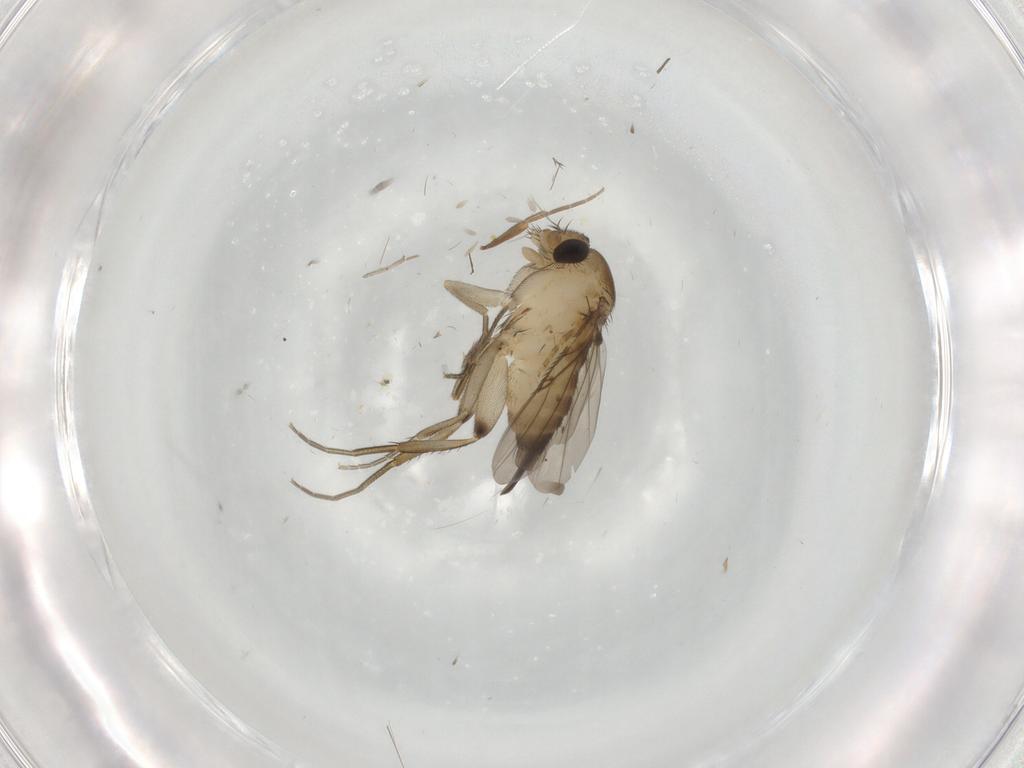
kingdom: Animalia
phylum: Arthropoda
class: Insecta
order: Diptera
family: Phoridae
